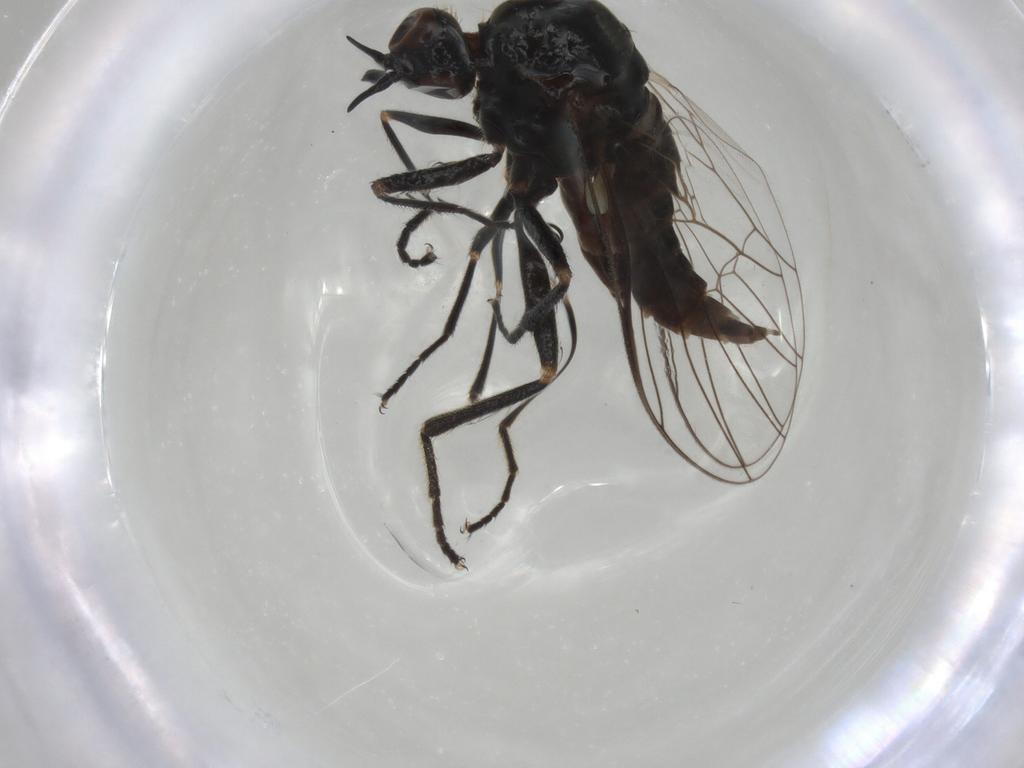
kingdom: Animalia
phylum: Arthropoda
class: Insecta
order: Diptera
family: Empididae
